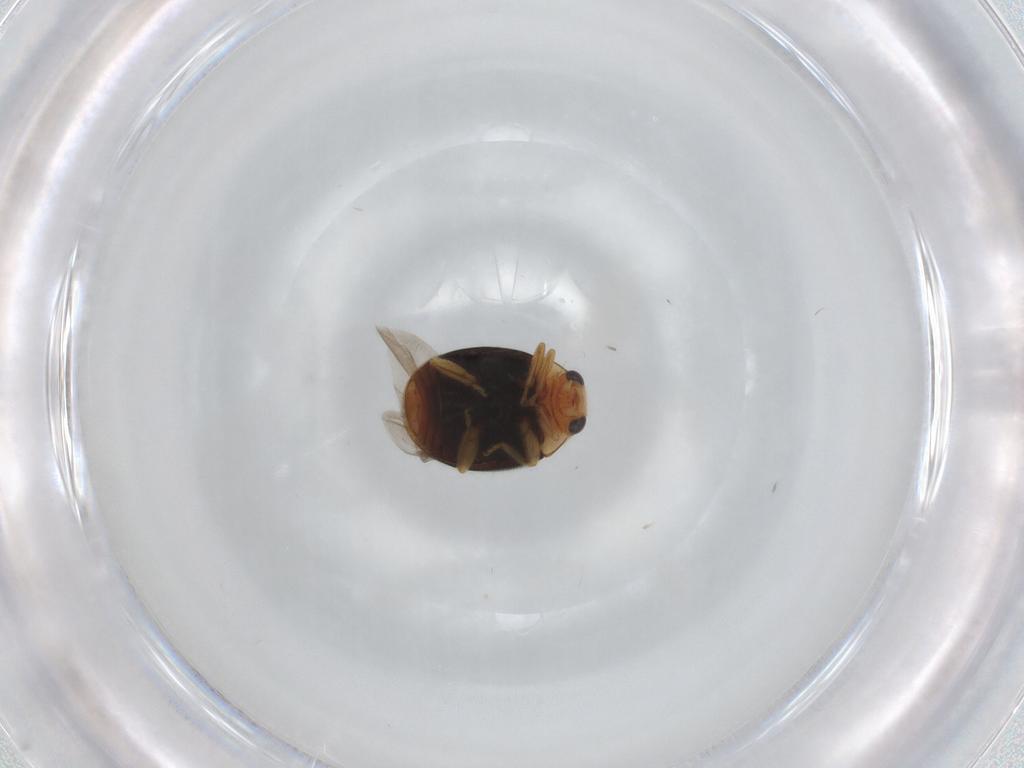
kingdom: Animalia
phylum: Arthropoda
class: Insecta
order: Coleoptera
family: Coccinellidae
